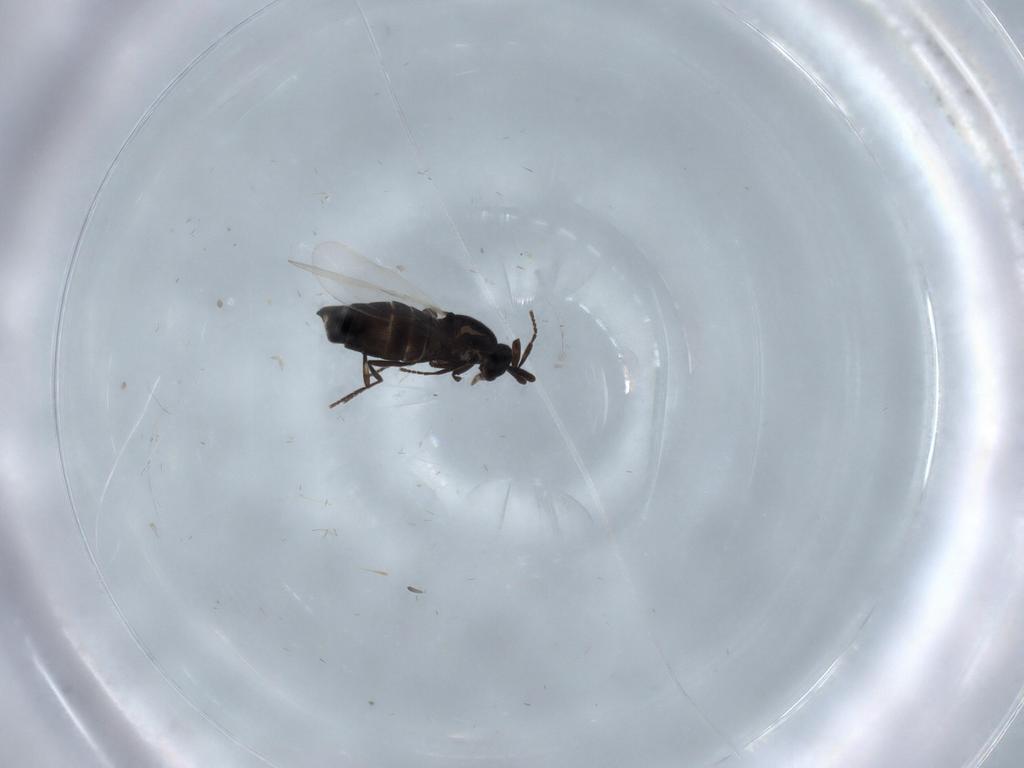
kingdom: Animalia
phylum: Arthropoda
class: Insecta
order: Diptera
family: Scatopsidae
